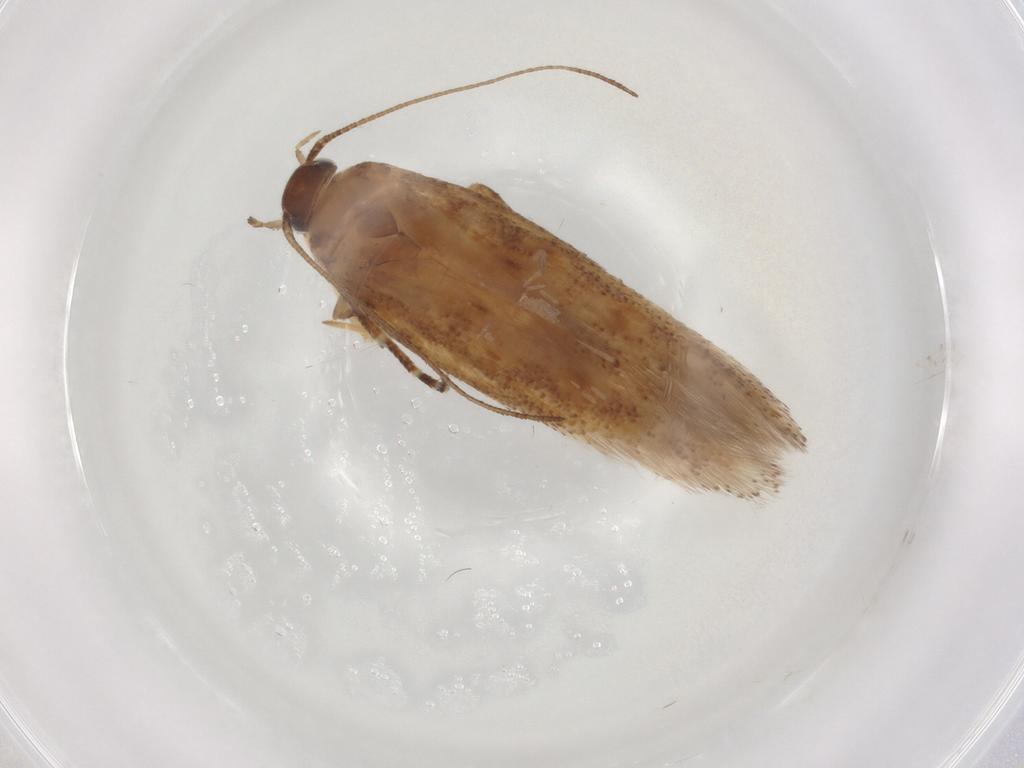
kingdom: Animalia
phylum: Arthropoda
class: Insecta
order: Lepidoptera
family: Gelechiidae
